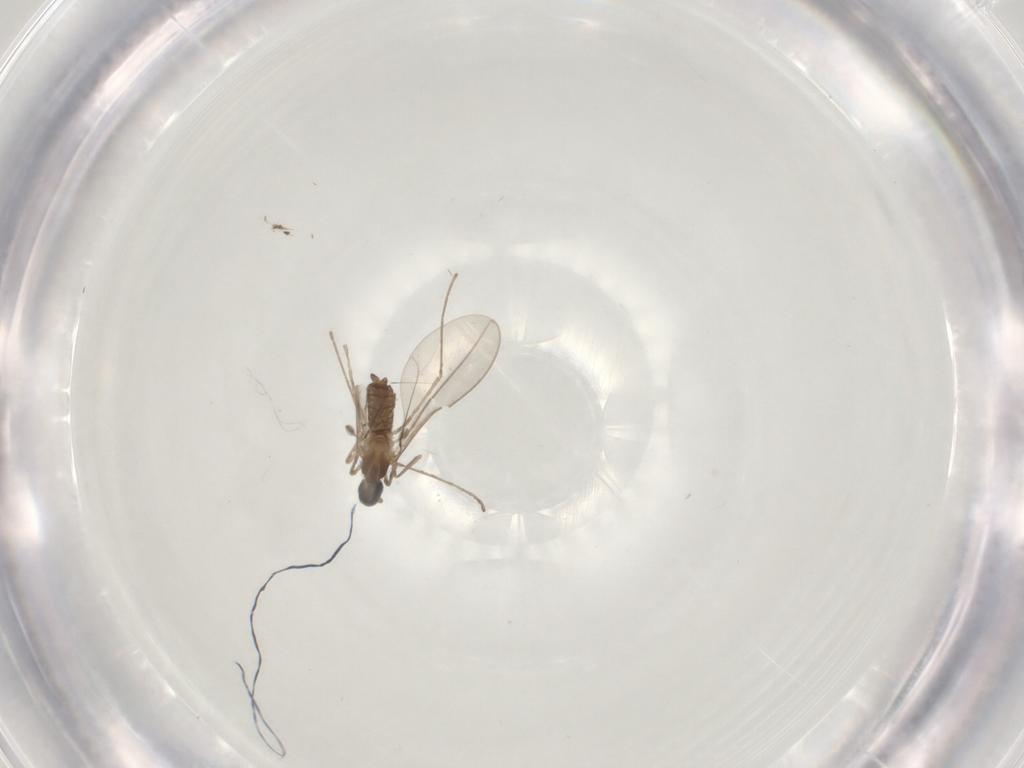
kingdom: Animalia
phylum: Arthropoda
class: Insecta
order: Diptera
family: Cecidomyiidae
